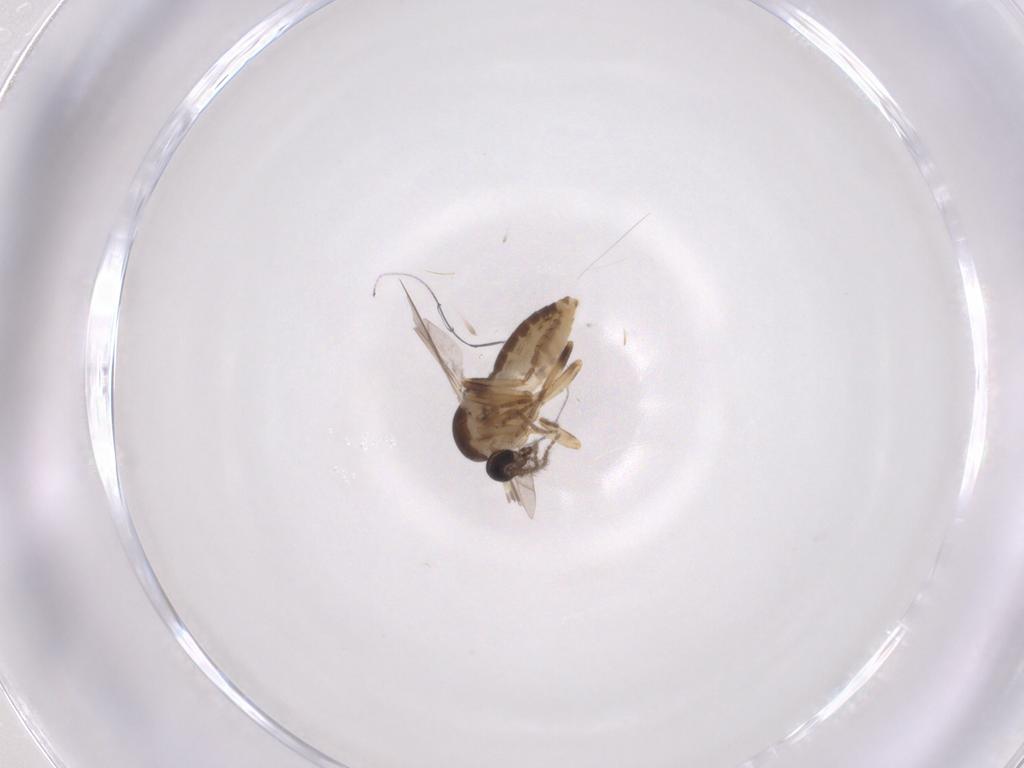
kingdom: Animalia
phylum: Arthropoda
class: Insecta
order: Diptera
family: Ceratopogonidae
